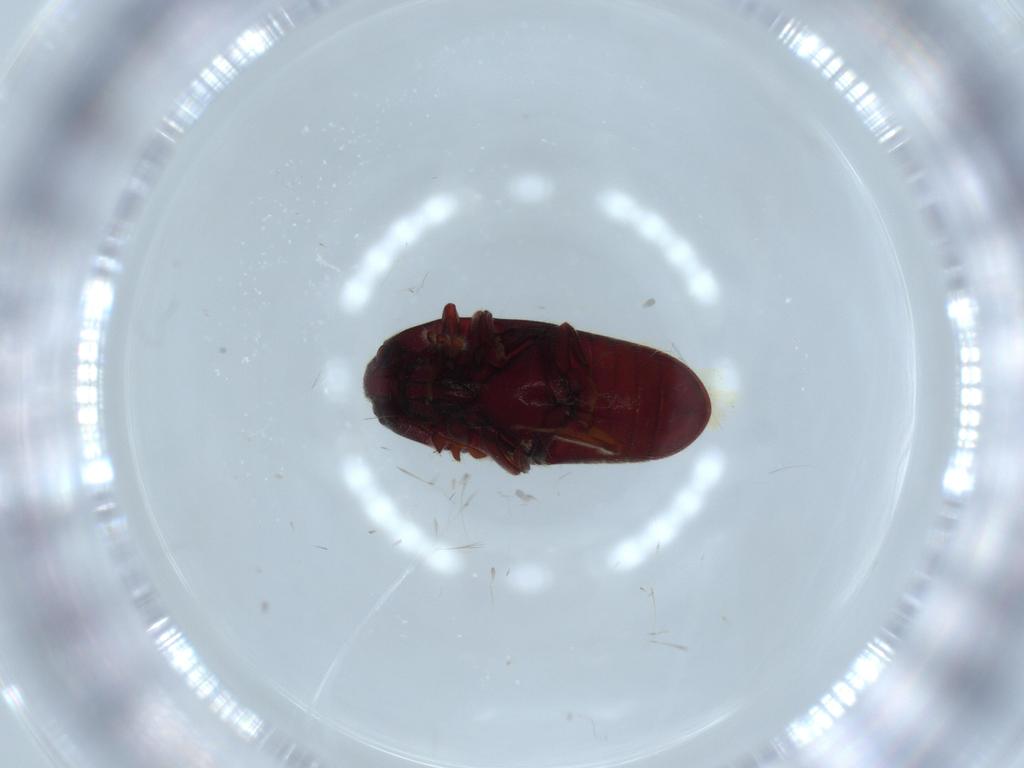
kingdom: Animalia
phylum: Arthropoda
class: Insecta
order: Coleoptera
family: Throscidae
